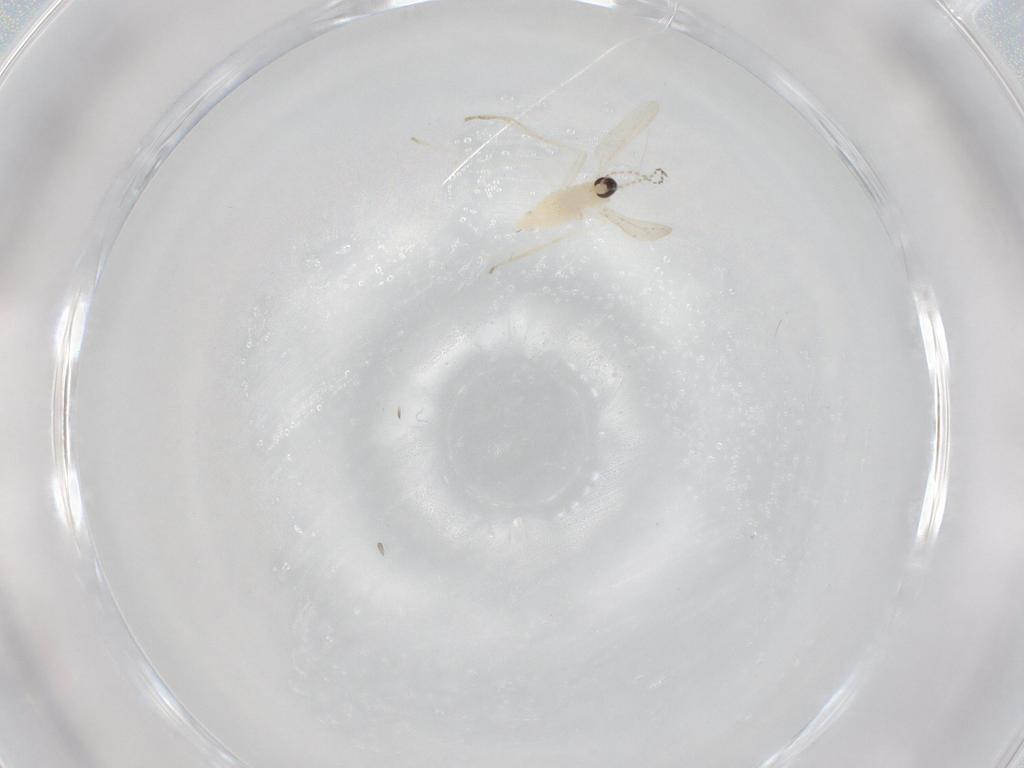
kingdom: Animalia
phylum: Arthropoda
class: Insecta
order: Diptera
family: Cecidomyiidae
